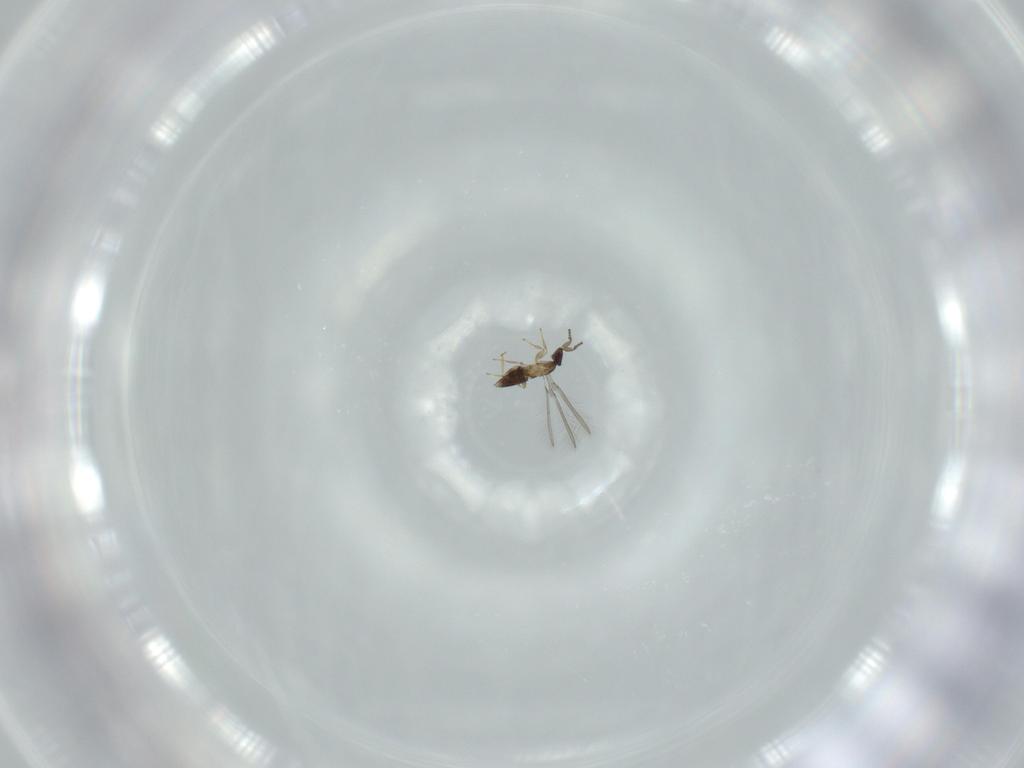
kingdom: Animalia
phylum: Arthropoda
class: Insecta
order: Hymenoptera
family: Mymaridae
